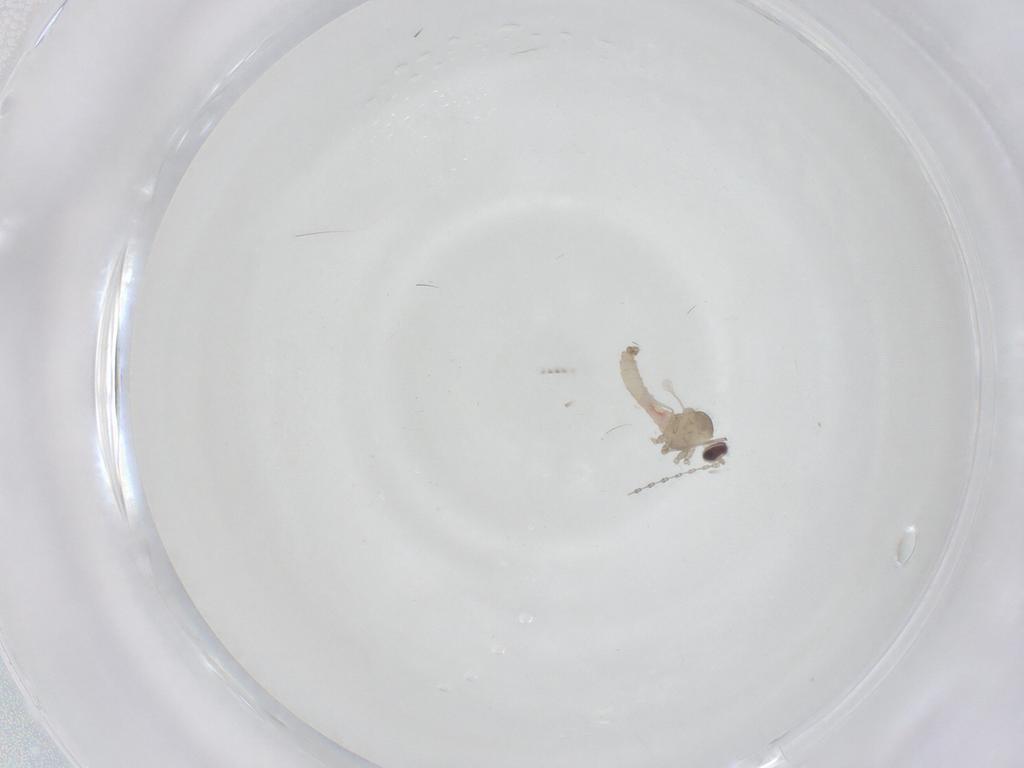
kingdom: Animalia
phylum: Arthropoda
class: Insecta
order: Diptera
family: Cecidomyiidae
